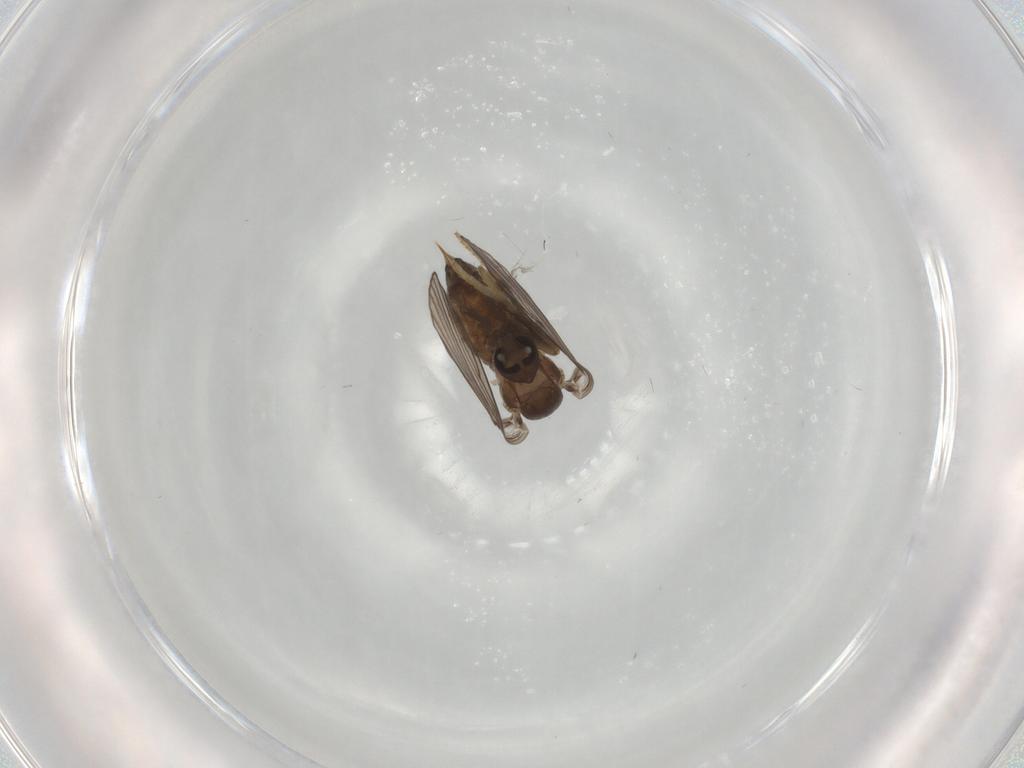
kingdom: Animalia
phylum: Arthropoda
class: Insecta
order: Diptera
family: Psychodidae
